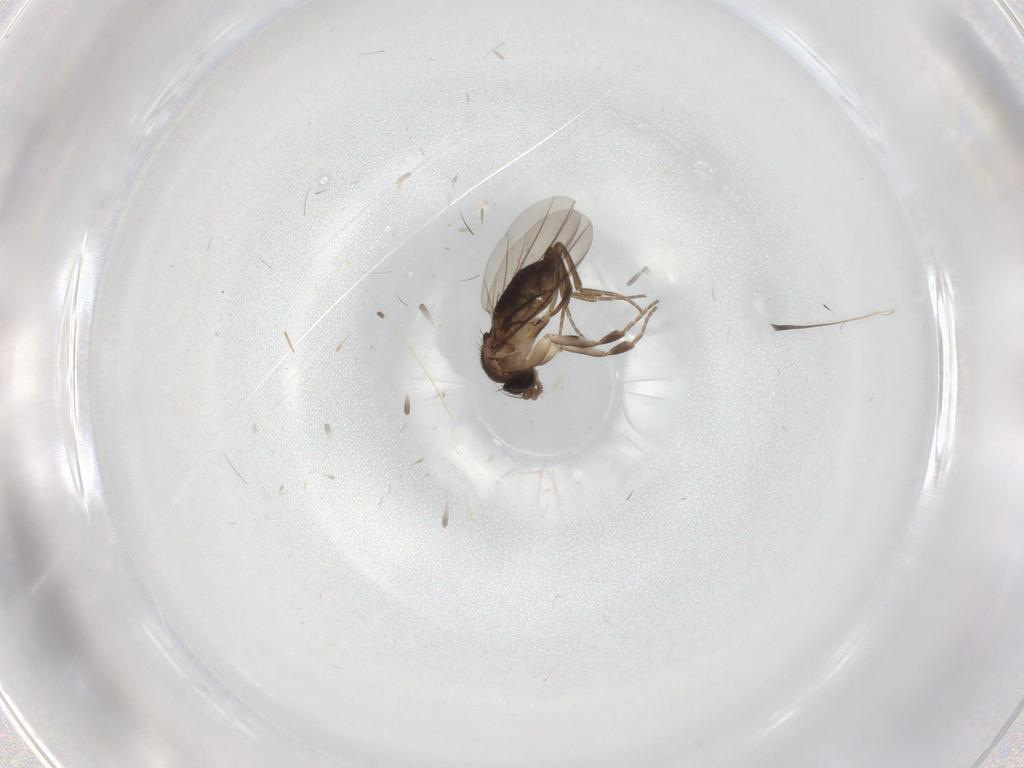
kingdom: Animalia
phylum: Arthropoda
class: Insecta
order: Diptera
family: Phoridae
